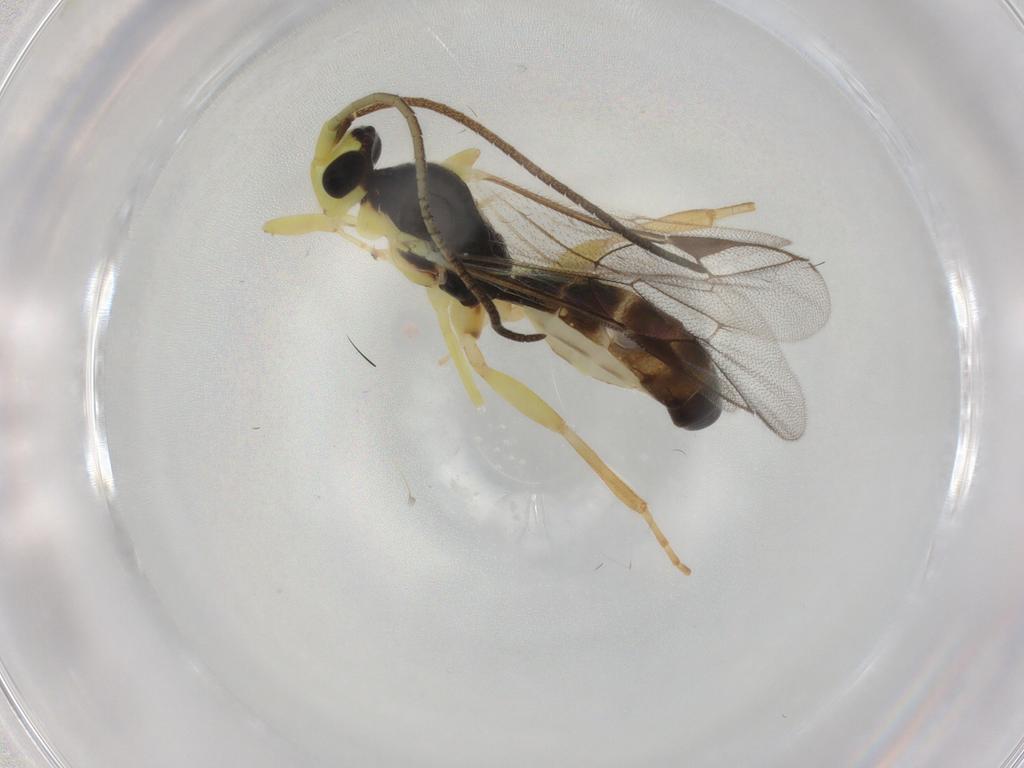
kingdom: Animalia
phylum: Arthropoda
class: Insecta
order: Hymenoptera
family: Ichneumonidae
